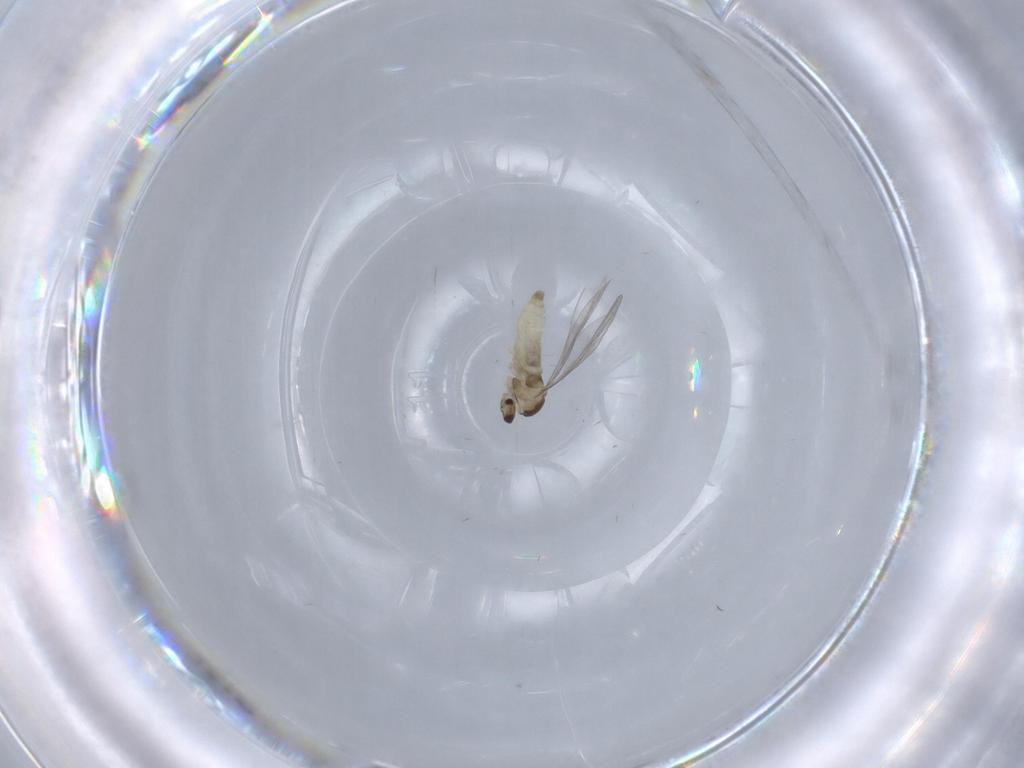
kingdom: Animalia
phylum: Arthropoda
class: Insecta
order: Diptera
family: Cecidomyiidae
